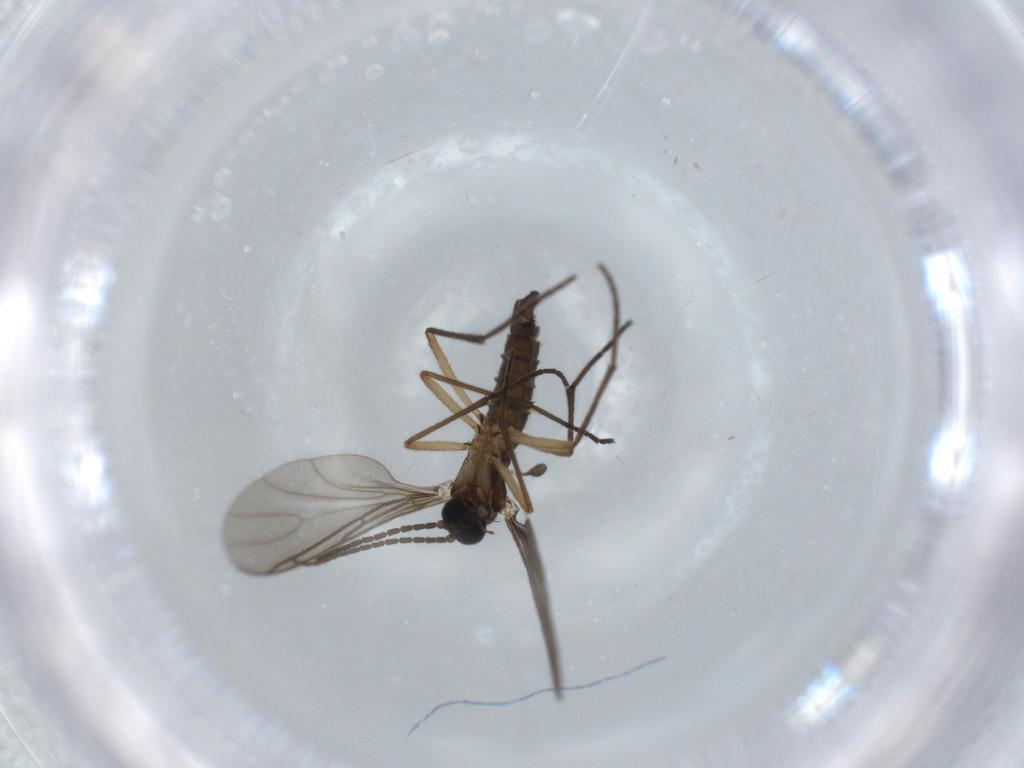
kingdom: Animalia
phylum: Arthropoda
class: Insecta
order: Diptera
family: Sciaridae
